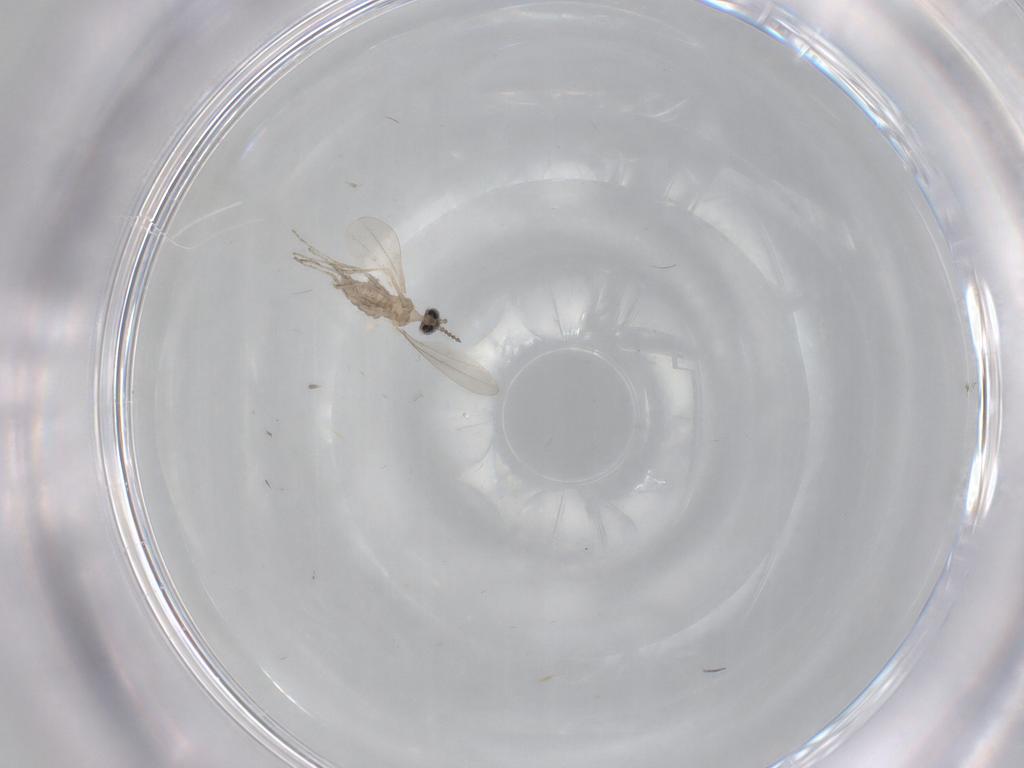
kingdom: Animalia
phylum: Arthropoda
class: Insecta
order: Diptera
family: Cecidomyiidae
